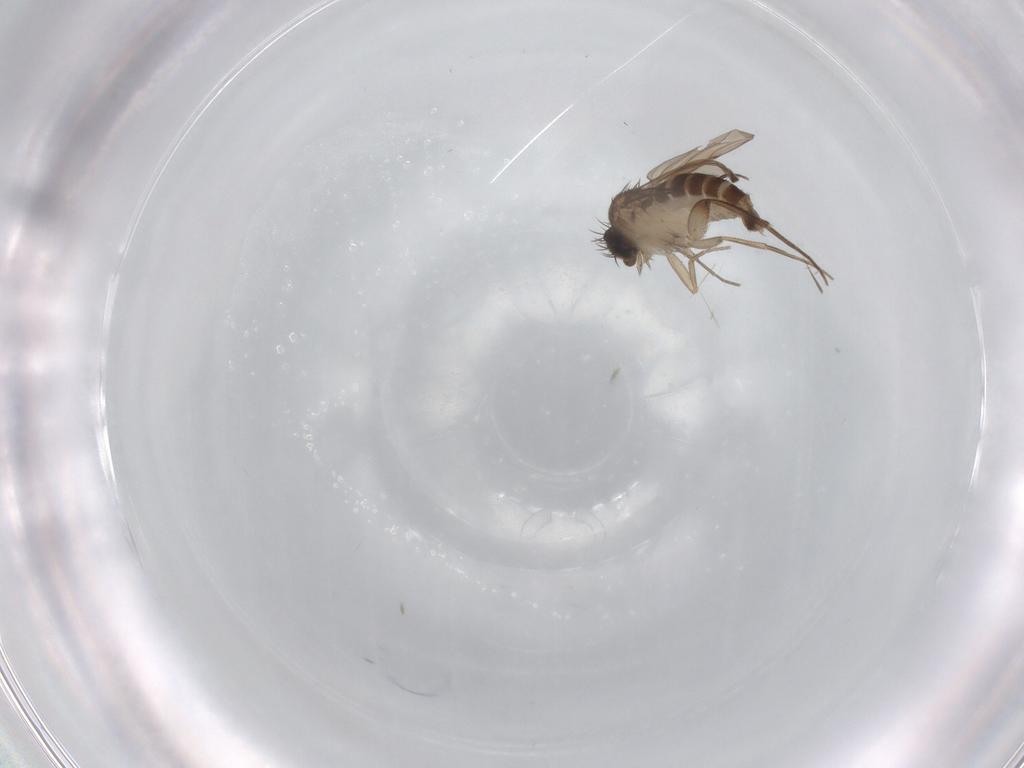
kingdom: Animalia
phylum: Arthropoda
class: Insecta
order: Diptera
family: Phoridae
